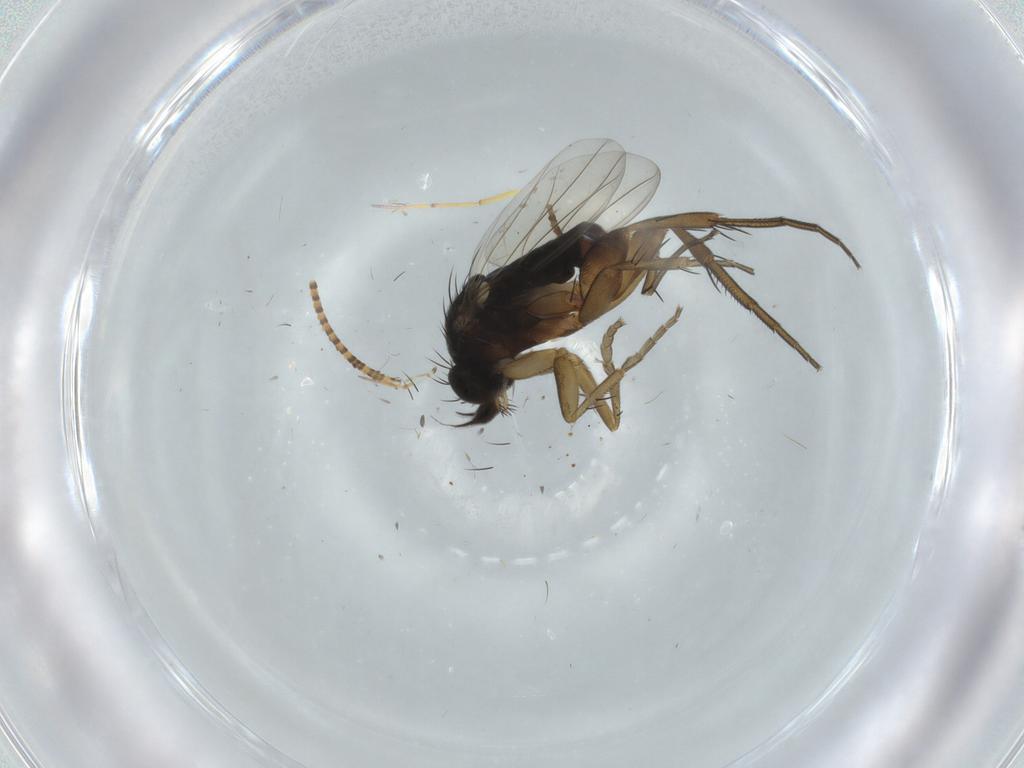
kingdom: Animalia
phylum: Arthropoda
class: Insecta
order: Diptera
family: Phoridae
